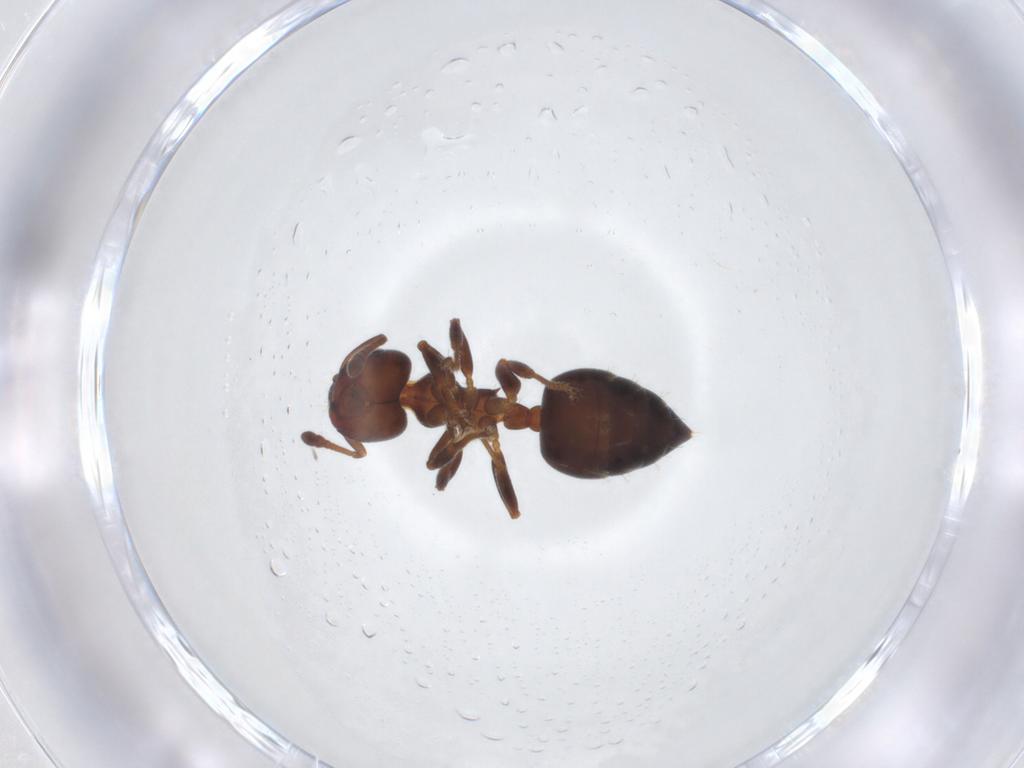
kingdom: Animalia
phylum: Arthropoda
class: Insecta
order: Hymenoptera
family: Formicidae
